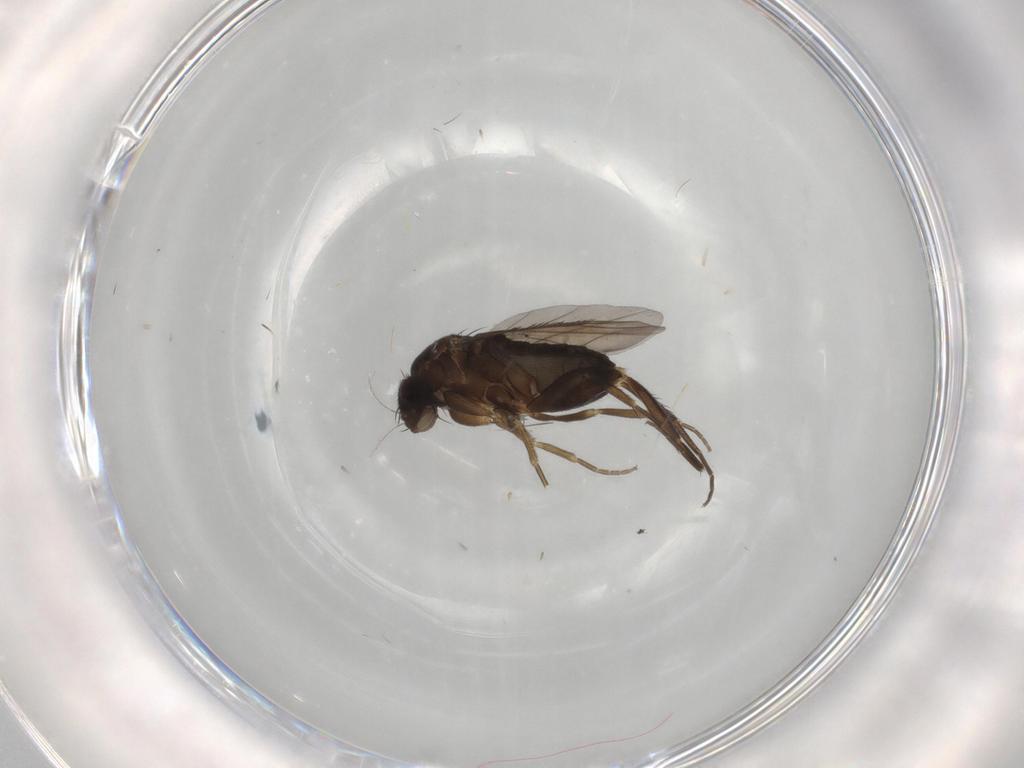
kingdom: Animalia
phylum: Arthropoda
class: Insecta
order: Diptera
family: Phoridae
